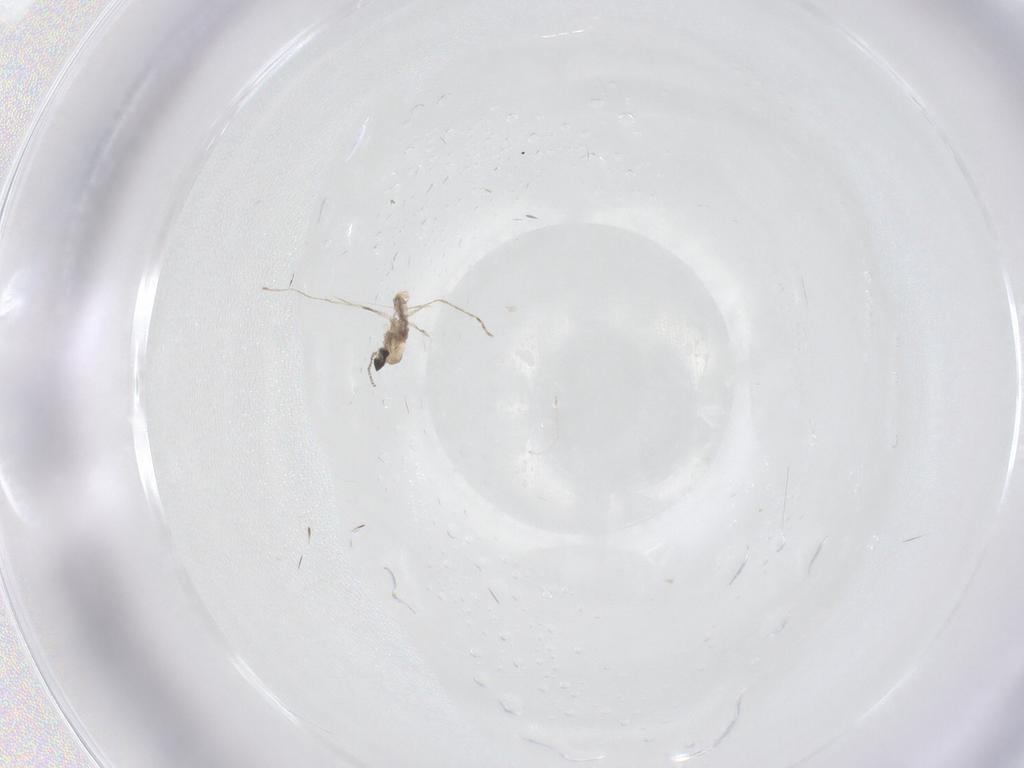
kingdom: Animalia
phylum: Arthropoda
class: Insecta
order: Diptera
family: Cecidomyiidae
